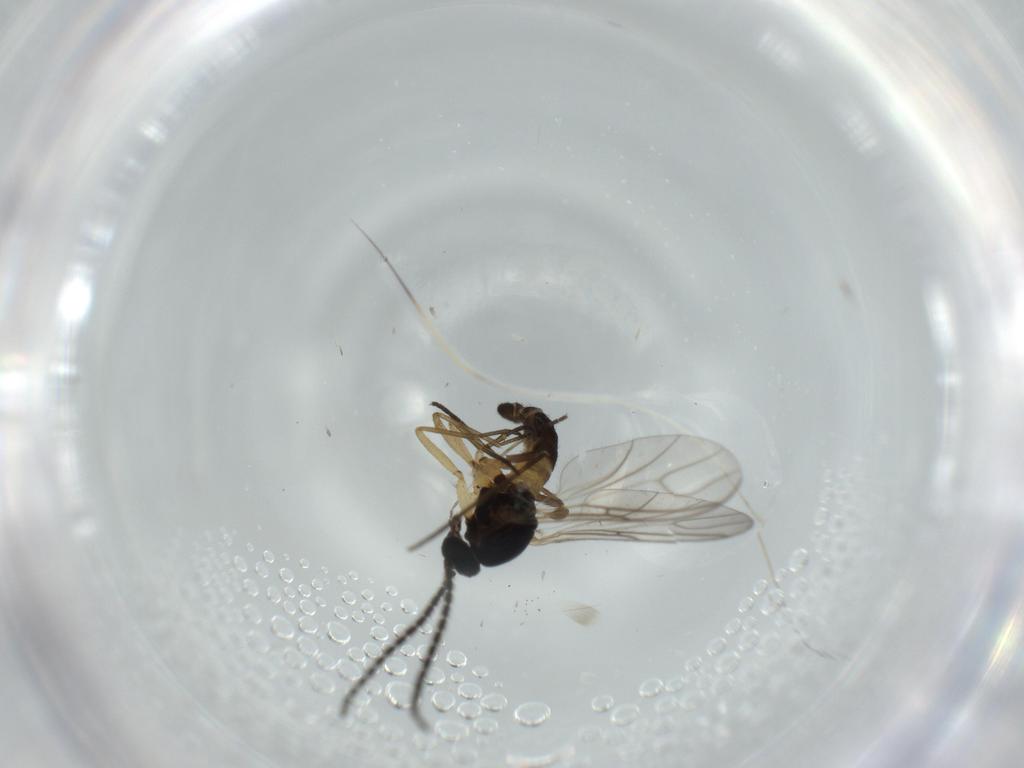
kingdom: Animalia
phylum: Arthropoda
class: Insecta
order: Diptera
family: Sciaridae
